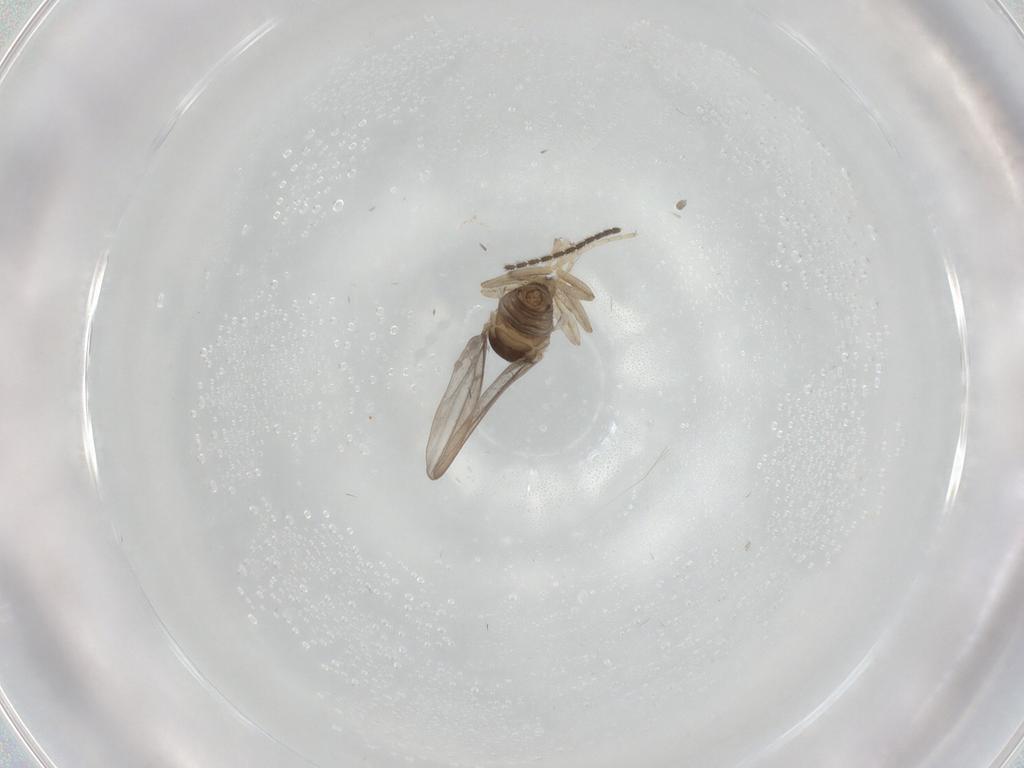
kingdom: Animalia
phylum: Arthropoda
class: Insecta
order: Diptera
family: Cecidomyiidae
